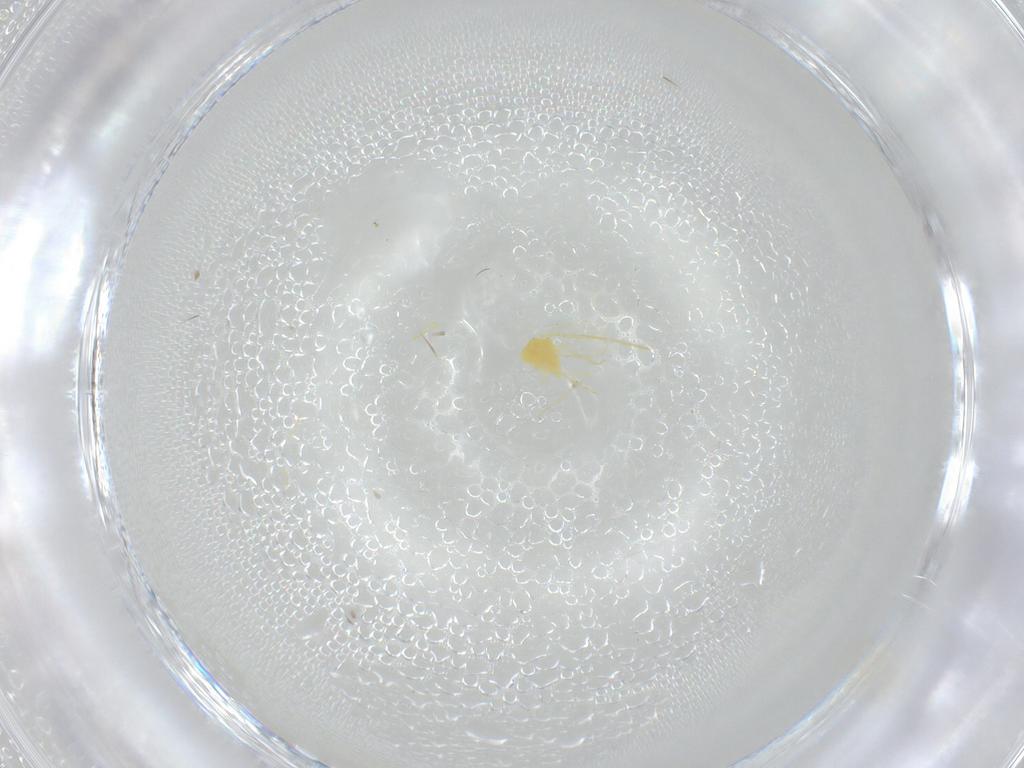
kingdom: Animalia
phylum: Arthropoda
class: Insecta
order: Hemiptera
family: Aleyrodidae
